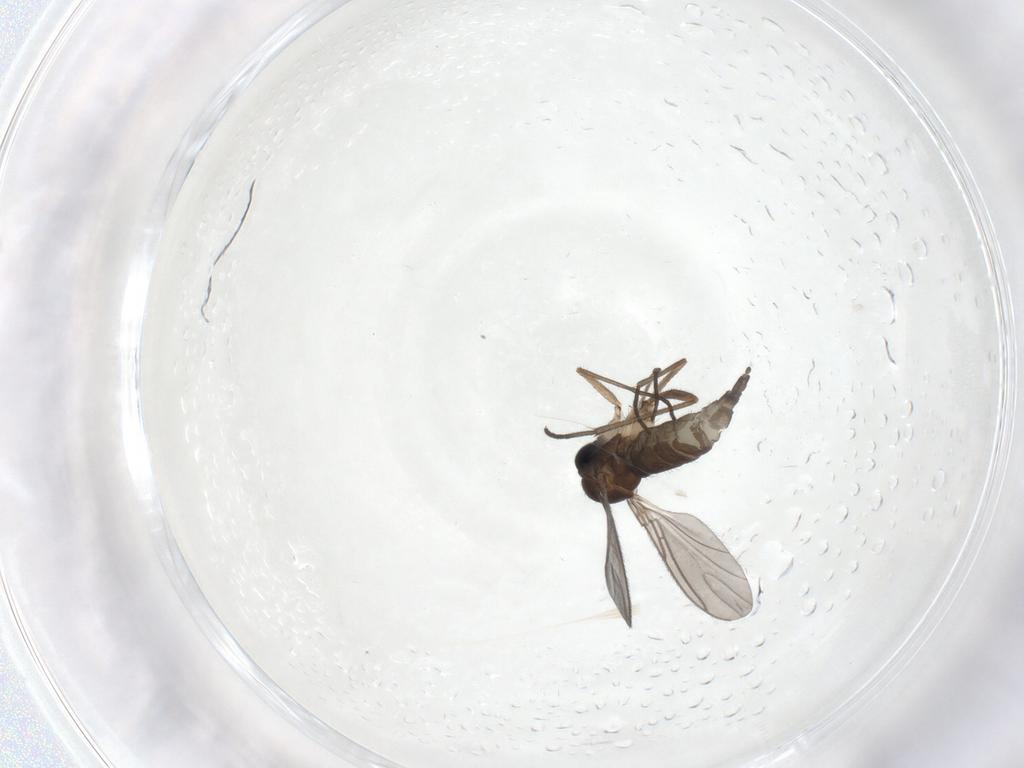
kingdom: Animalia
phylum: Arthropoda
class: Insecta
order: Diptera
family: Sciaridae
